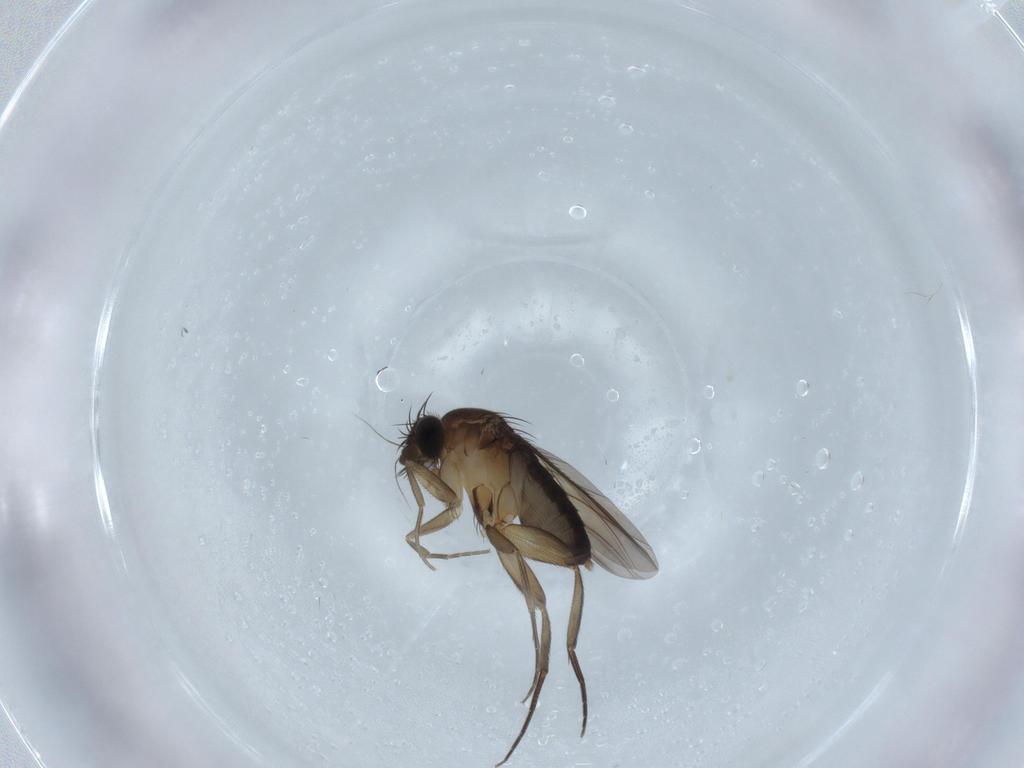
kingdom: Animalia
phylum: Arthropoda
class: Insecta
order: Diptera
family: Phoridae
